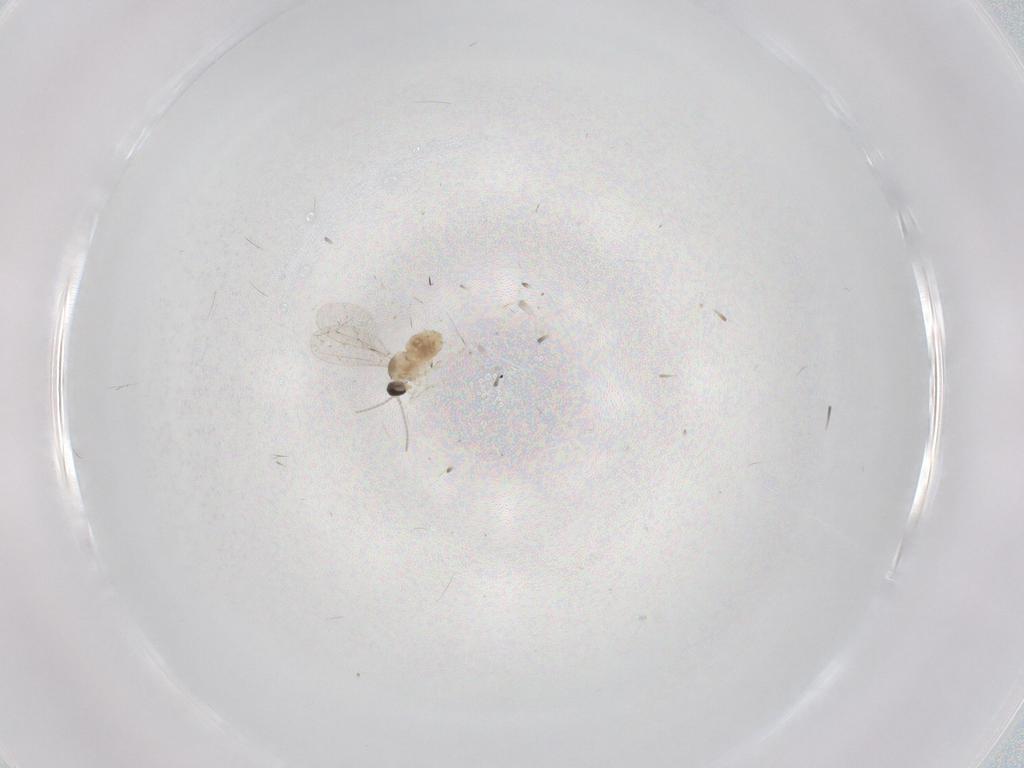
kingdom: Animalia
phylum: Arthropoda
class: Insecta
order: Diptera
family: Cecidomyiidae
